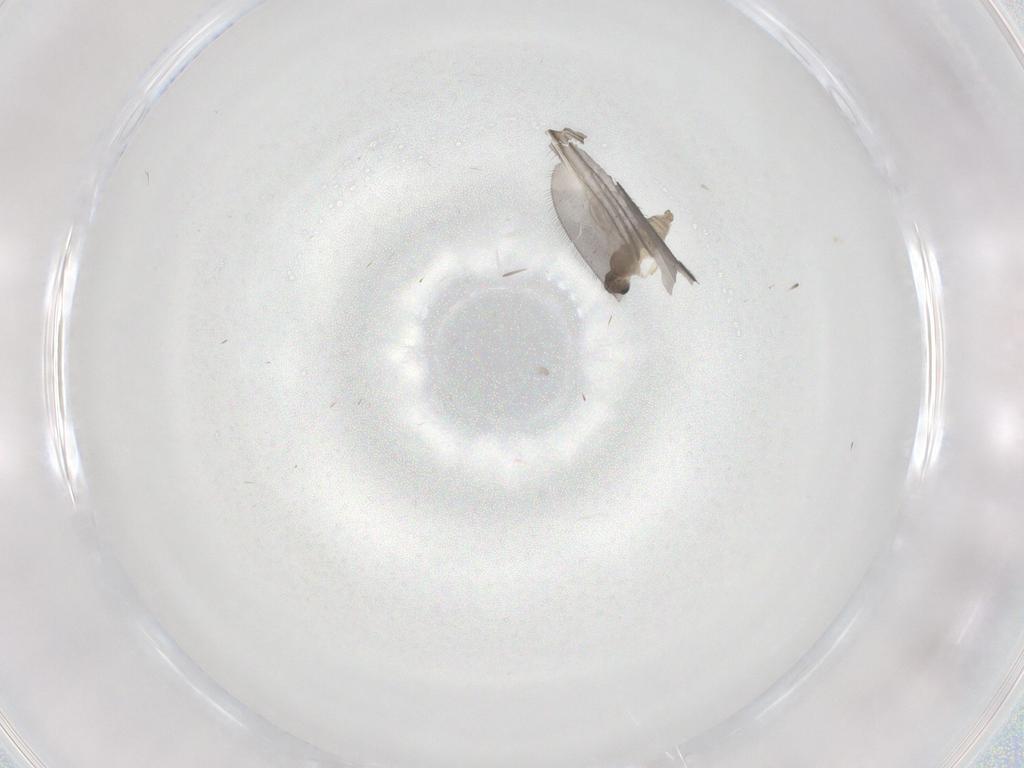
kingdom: Animalia
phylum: Arthropoda
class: Insecta
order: Diptera
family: Cecidomyiidae
